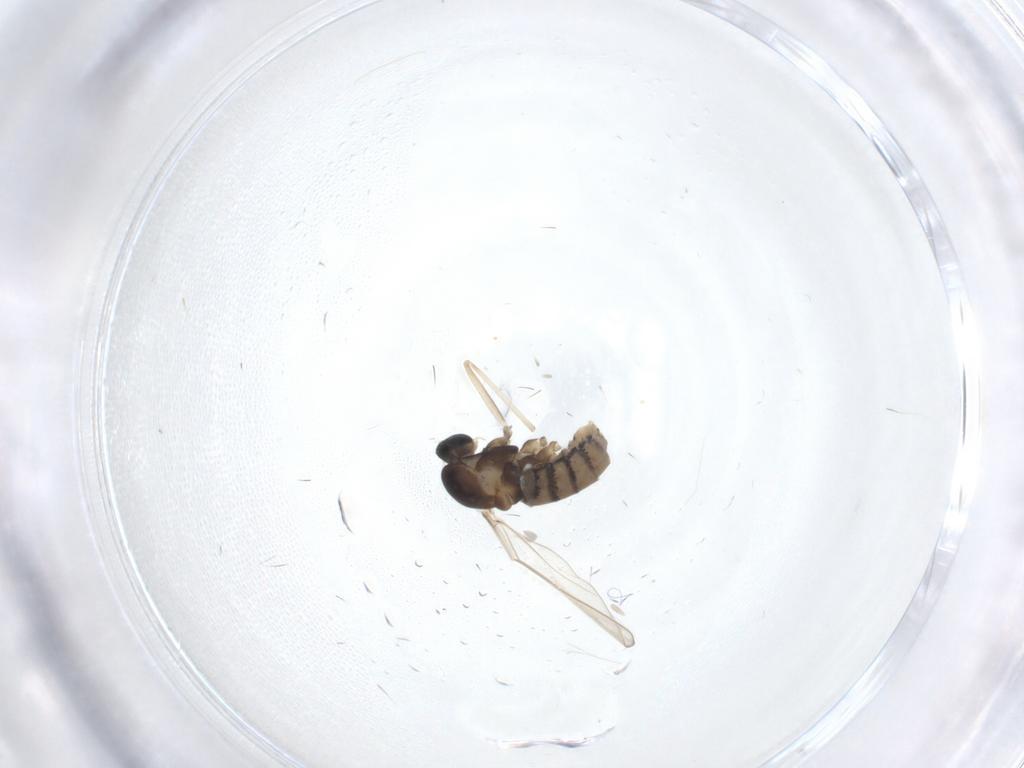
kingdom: Animalia
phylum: Arthropoda
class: Insecta
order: Diptera
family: Cecidomyiidae
